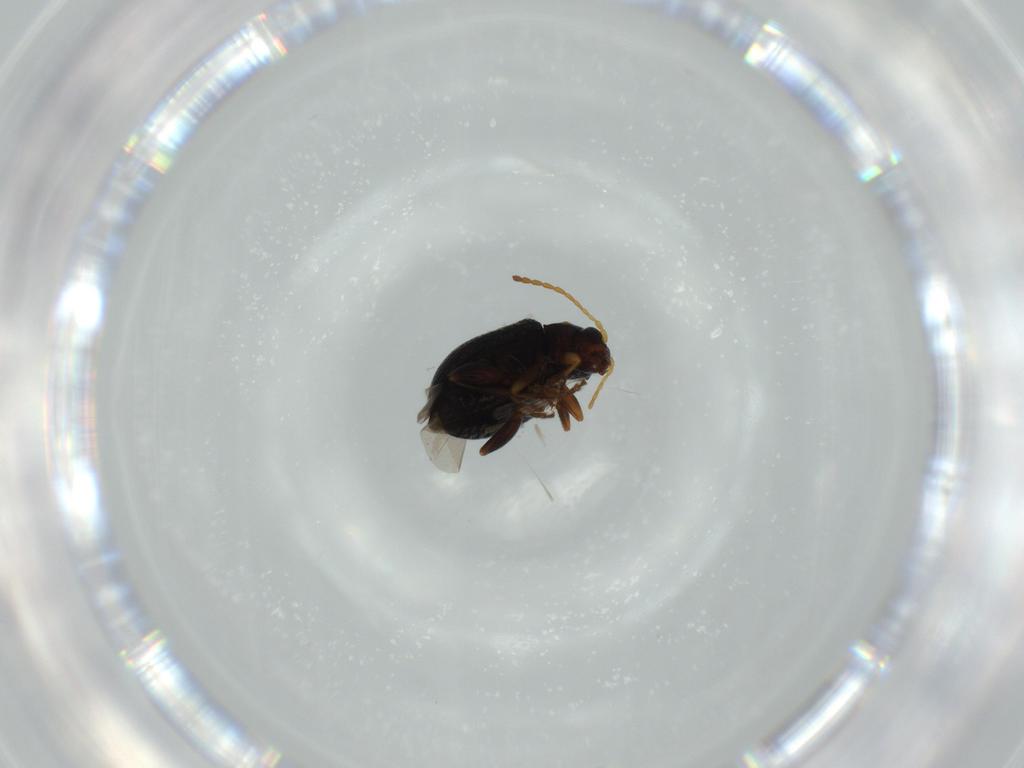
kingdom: Animalia
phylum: Arthropoda
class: Insecta
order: Coleoptera
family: Chrysomelidae
